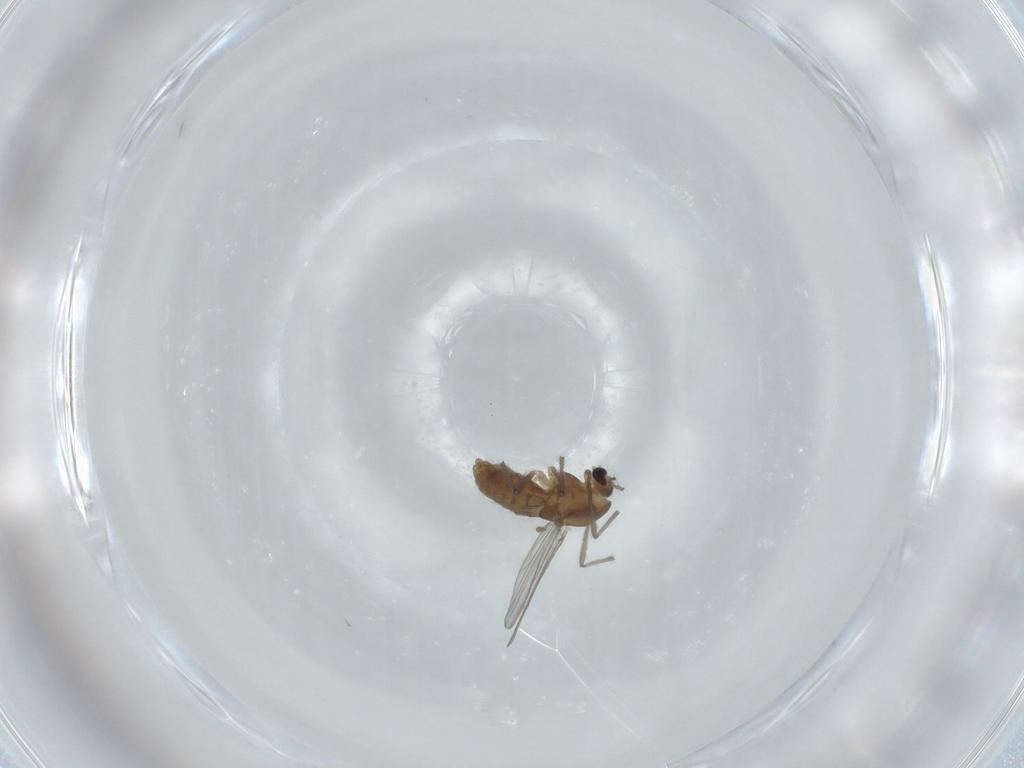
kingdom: Animalia
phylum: Arthropoda
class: Insecta
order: Diptera
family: Chironomidae
